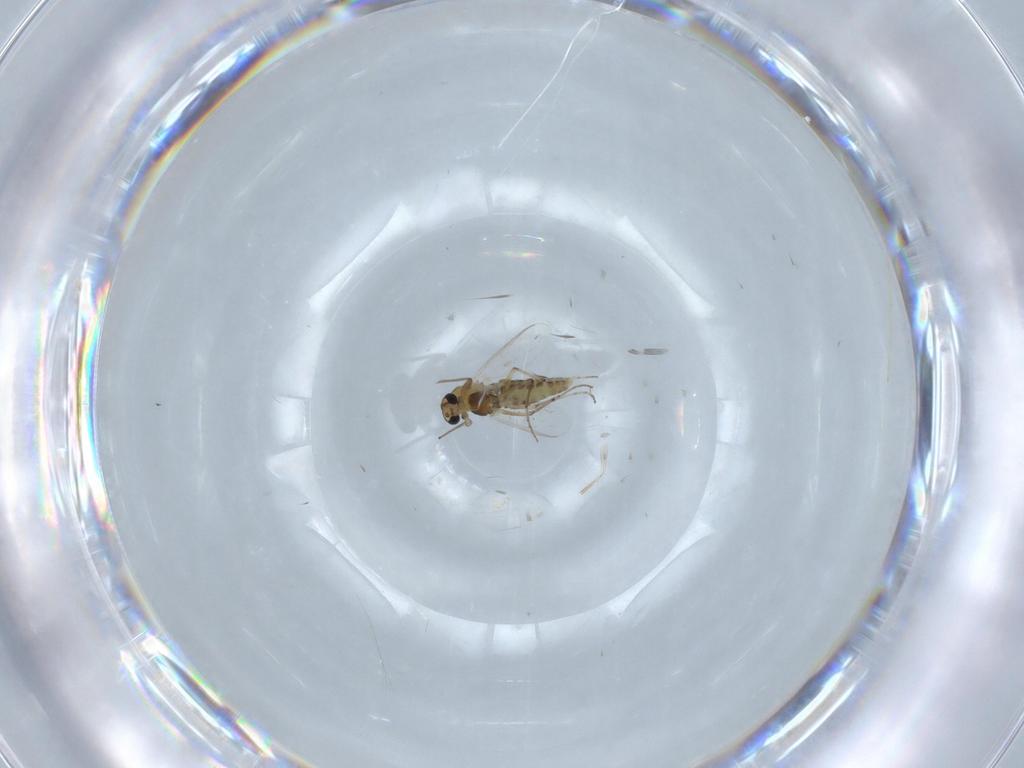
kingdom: Animalia
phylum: Arthropoda
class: Insecta
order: Diptera
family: Chironomidae
